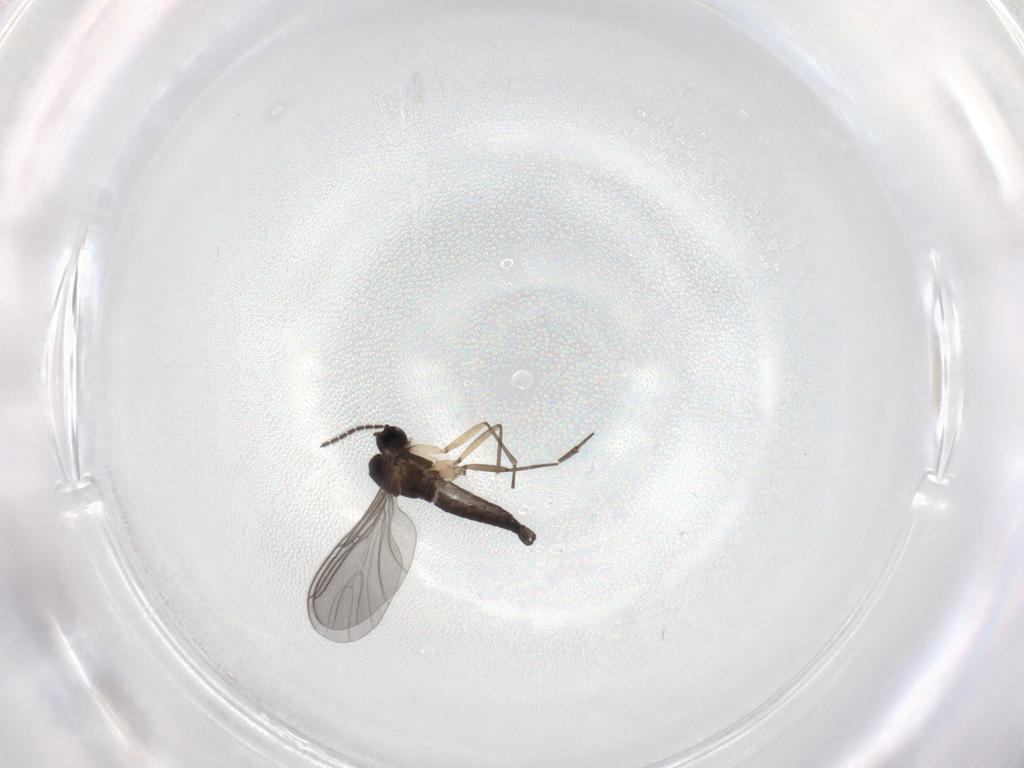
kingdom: Animalia
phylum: Arthropoda
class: Insecta
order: Diptera
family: Sciaridae
